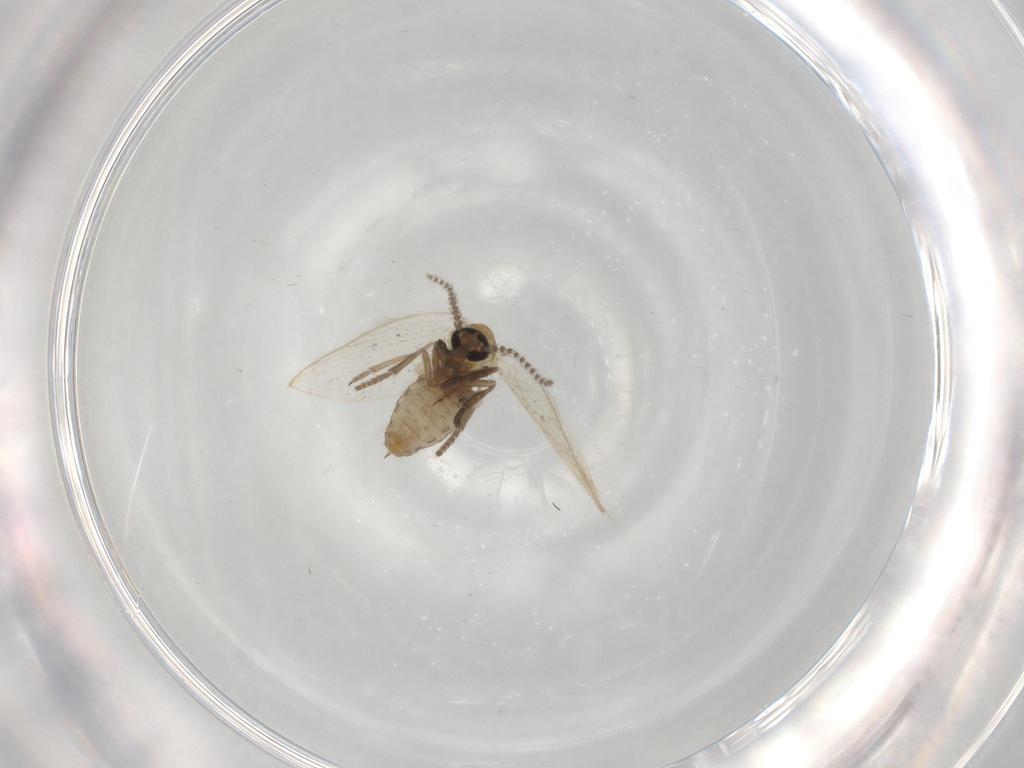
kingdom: Animalia
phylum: Arthropoda
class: Insecta
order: Diptera
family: Psychodidae
